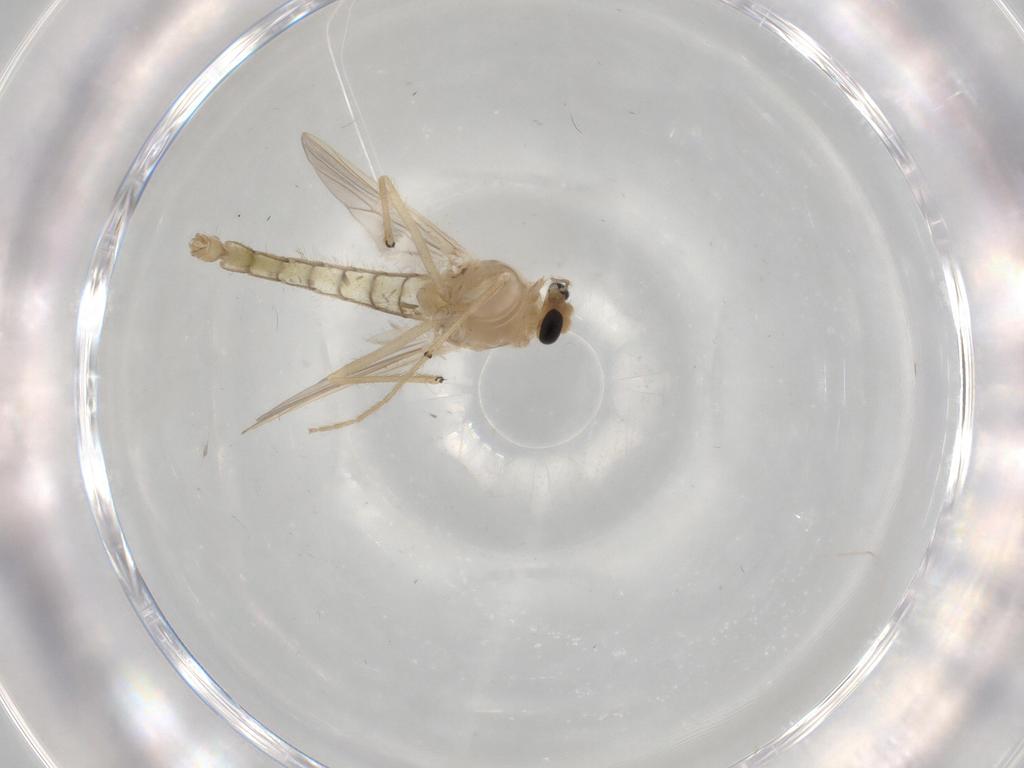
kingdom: Animalia
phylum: Arthropoda
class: Insecta
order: Diptera
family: Chironomidae
